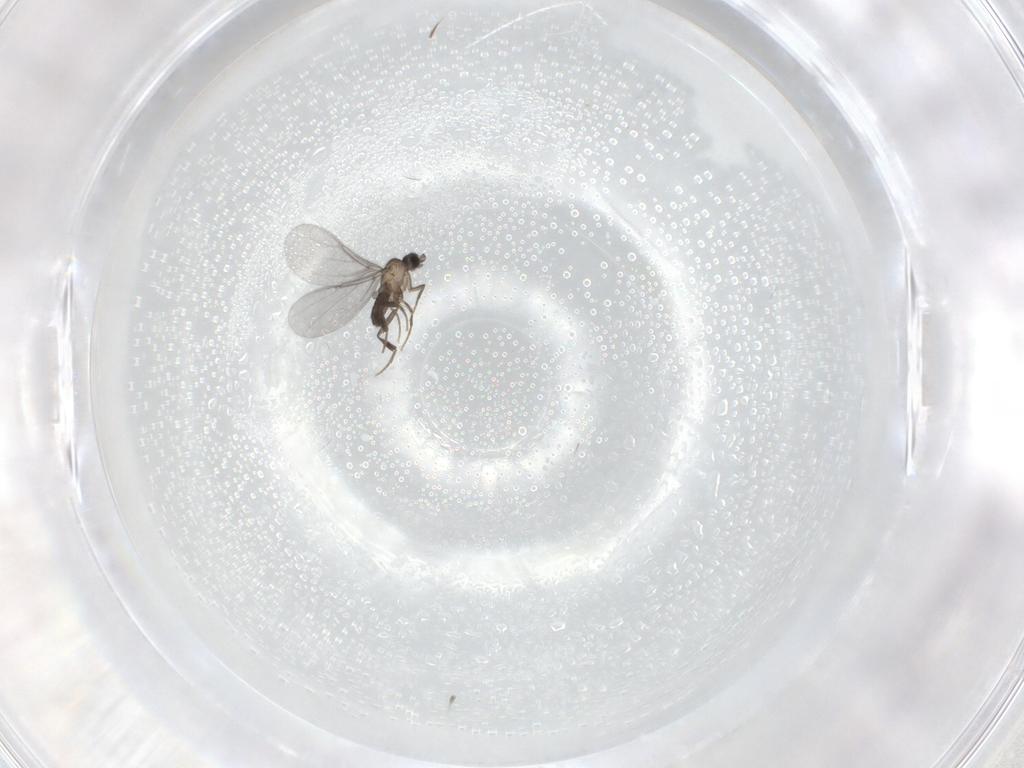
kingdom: Animalia
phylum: Arthropoda
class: Insecta
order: Diptera
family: Phoridae
